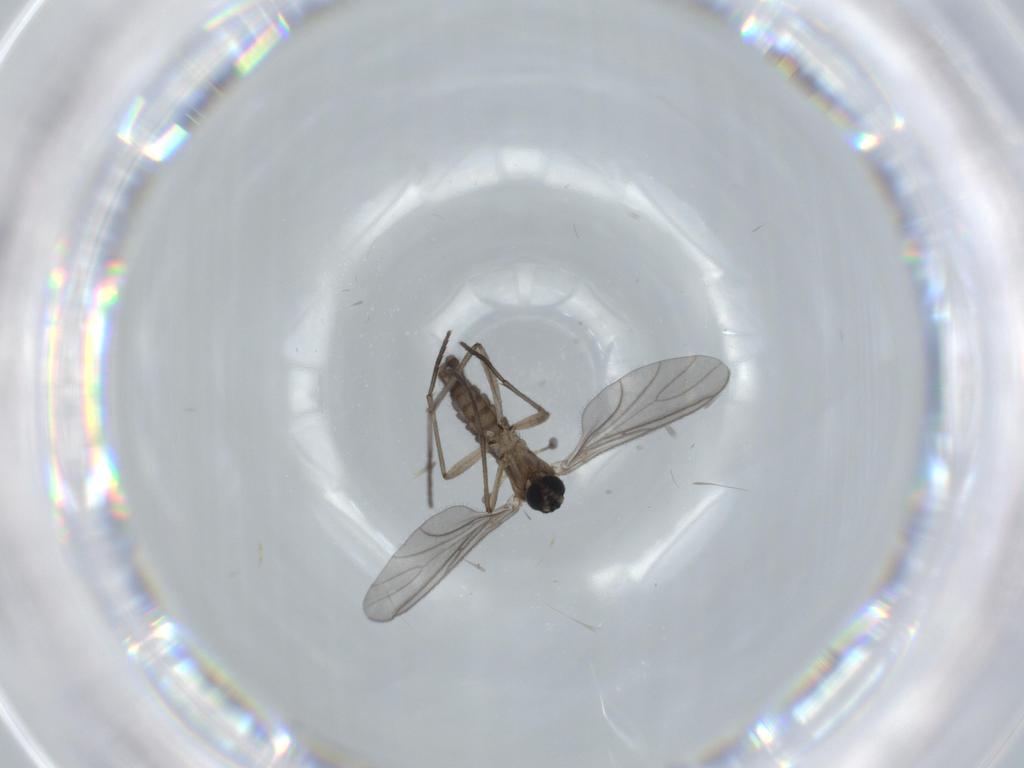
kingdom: Animalia
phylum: Arthropoda
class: Insecta
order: Diptera
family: Sciaridae
